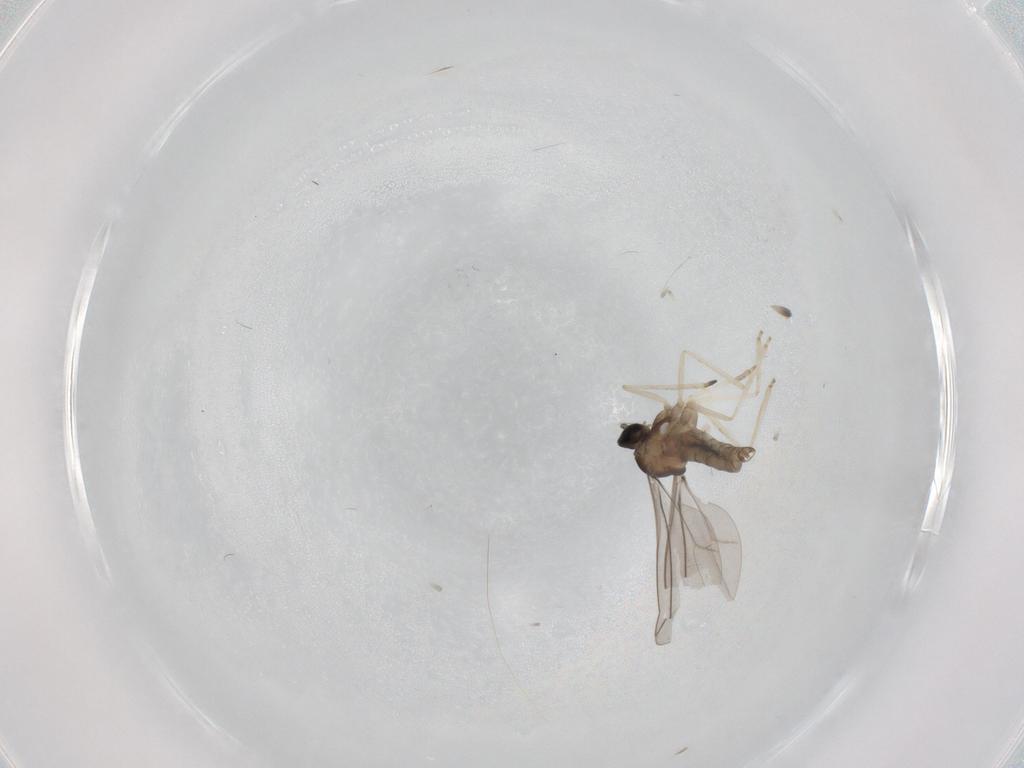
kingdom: Animalia
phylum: Arthropoda
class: Insecta
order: Diptera
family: Cecidomyiidae
